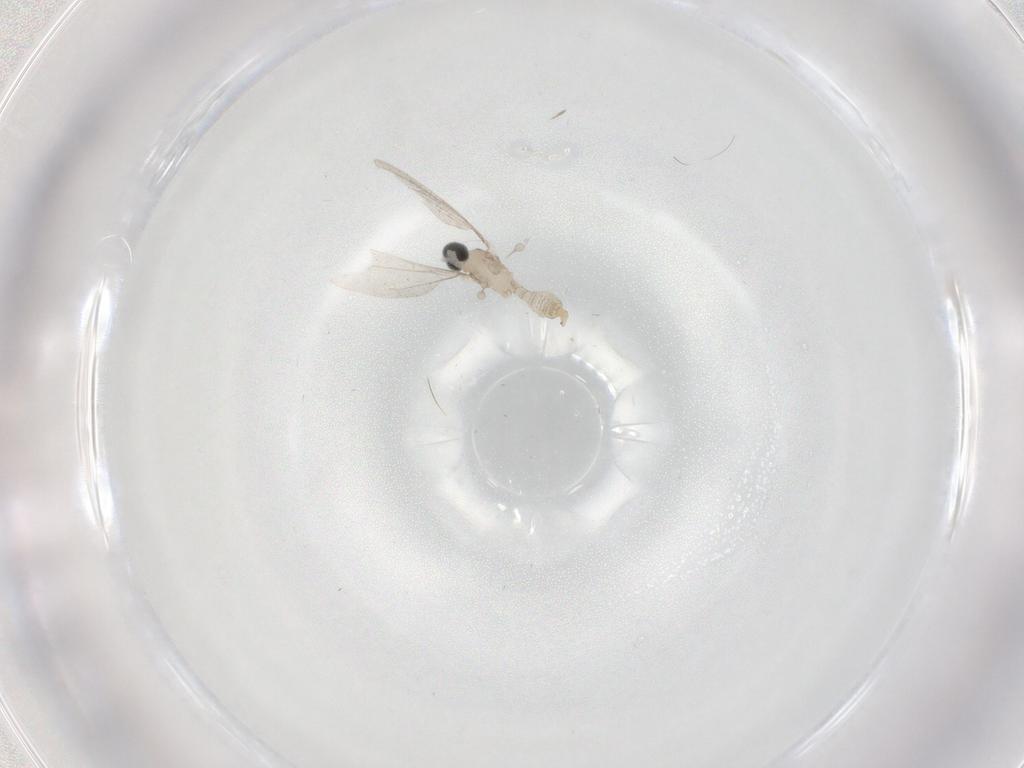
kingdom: Animalia
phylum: Arthropoda
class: Insecta
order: Diptera
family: Cecidomyiidae
